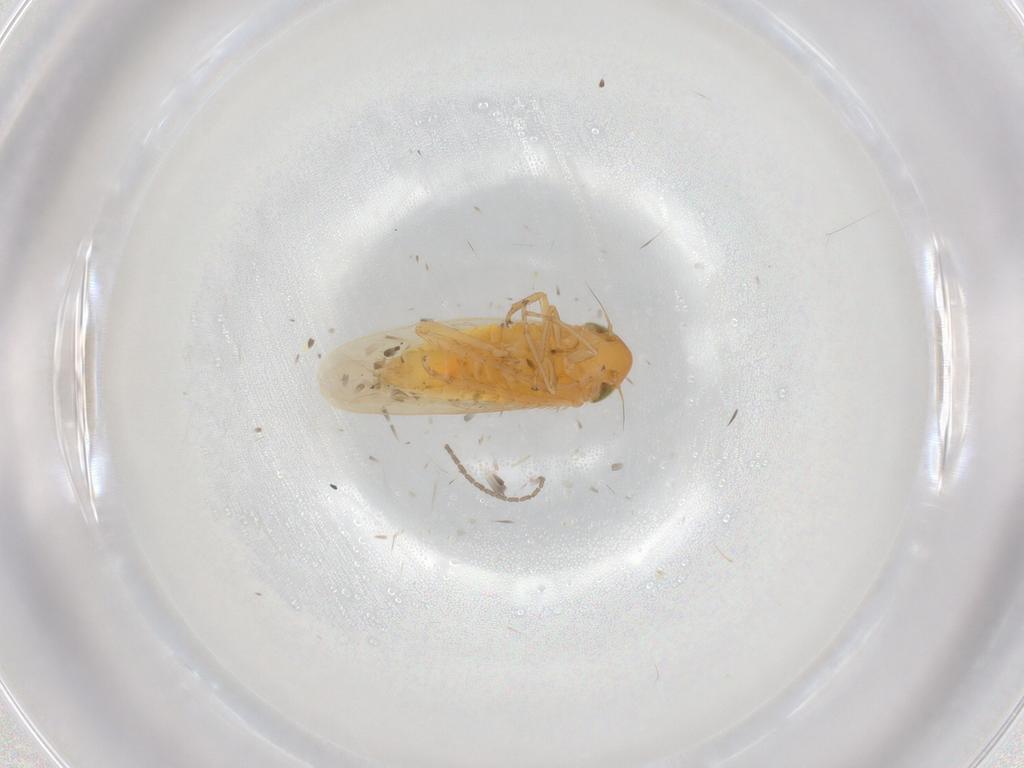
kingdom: Animalia
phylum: Arthropoda
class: Insecta
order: Hemiptera
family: Cicadellidae
